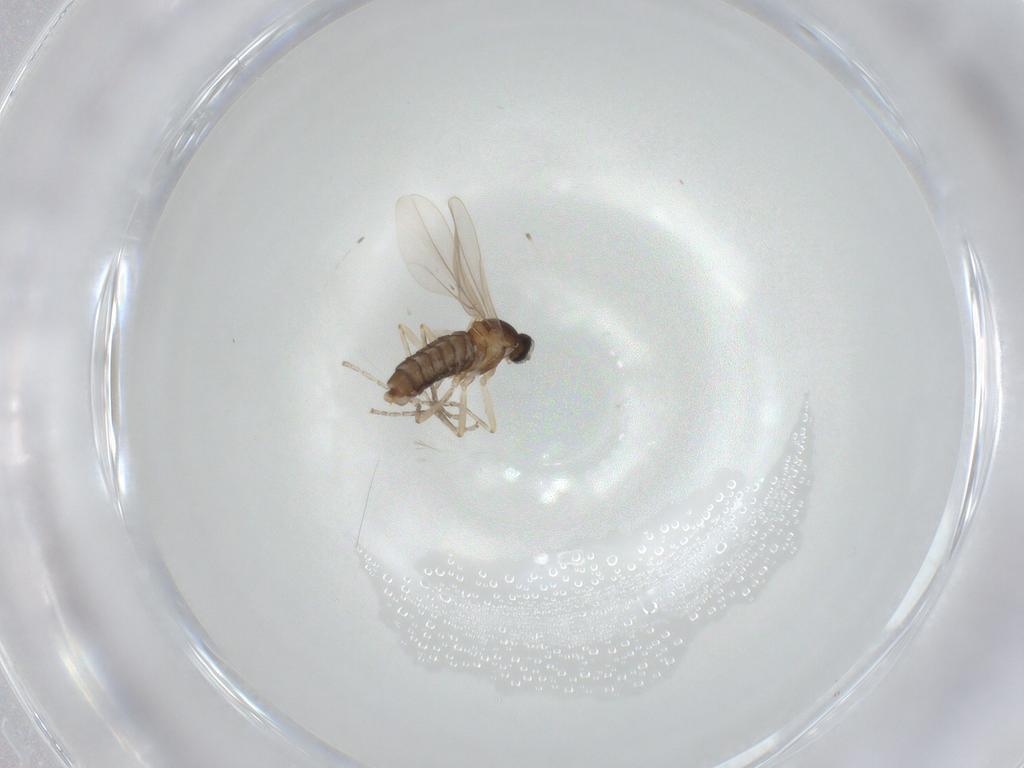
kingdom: Animalia
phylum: Arthropoda
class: Insecta
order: Diptera
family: Cecidomyiidae
